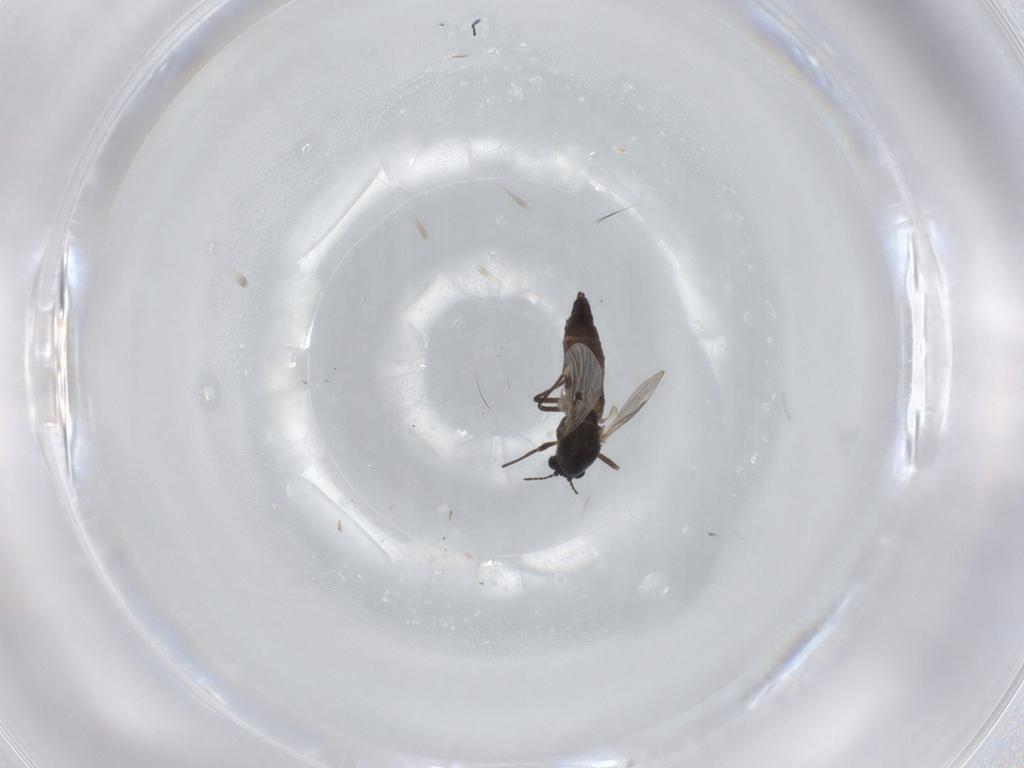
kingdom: Animalia
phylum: Arthropoda
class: Insecta
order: Diptera
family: Chironomidae
